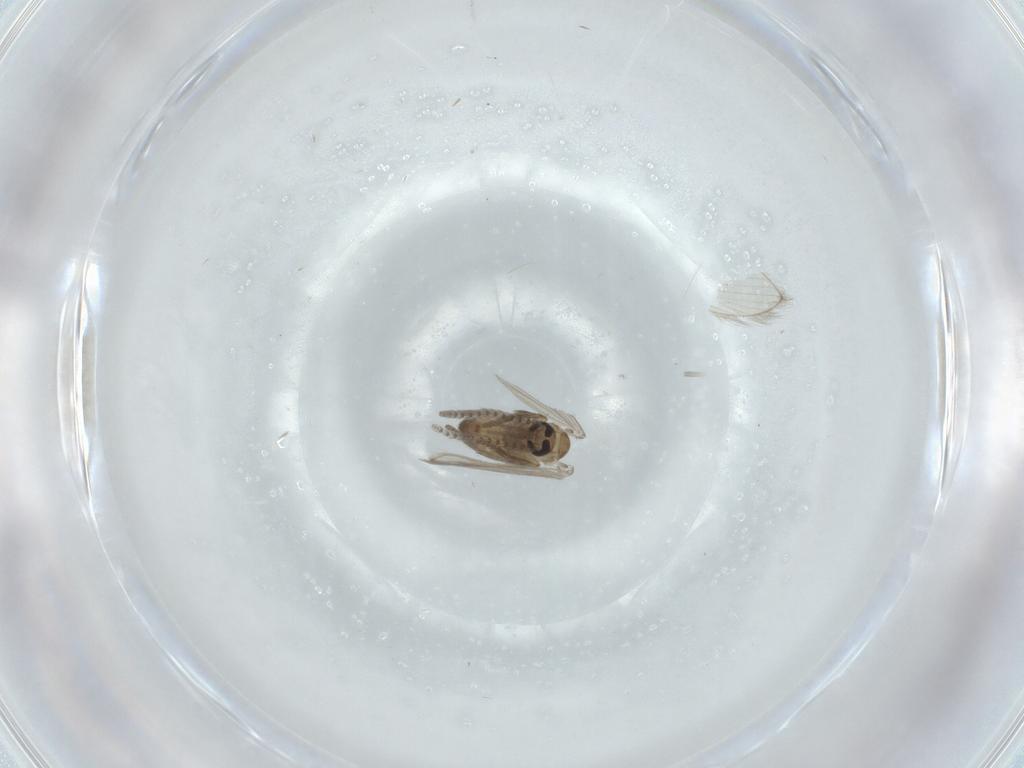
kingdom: Animalia
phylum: Arthropoda
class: Insecta
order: Diptera
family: Psychodidae
